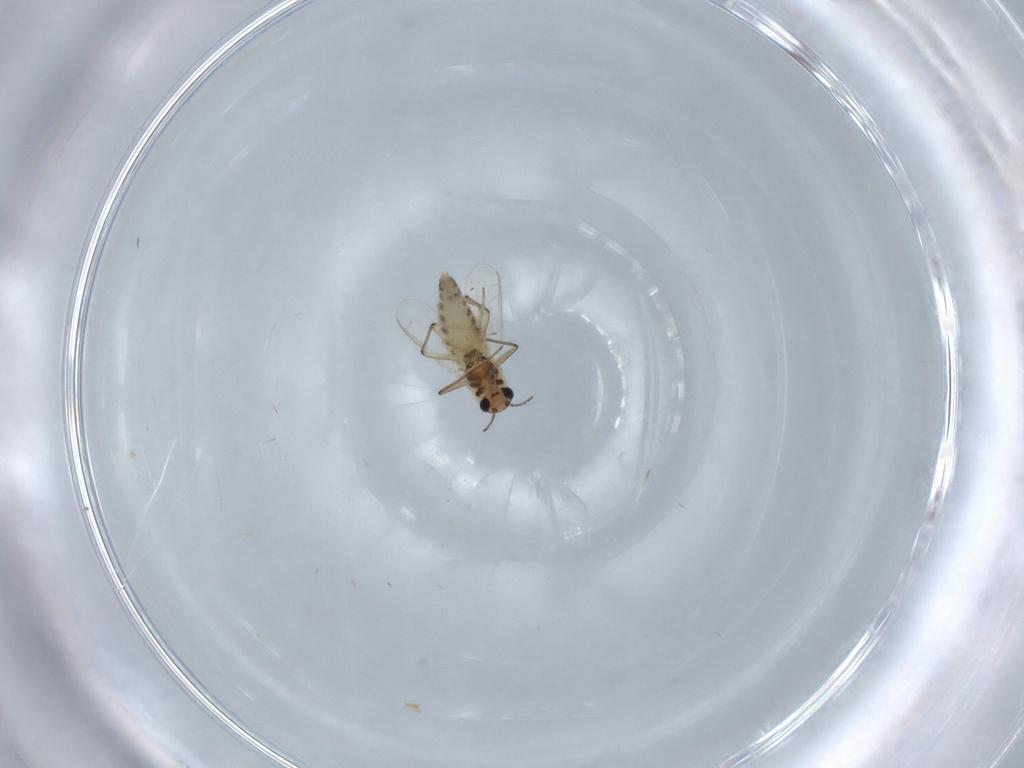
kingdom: Animalia
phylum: Arthropoda
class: Insecta
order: Diptera
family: Chironomidae
